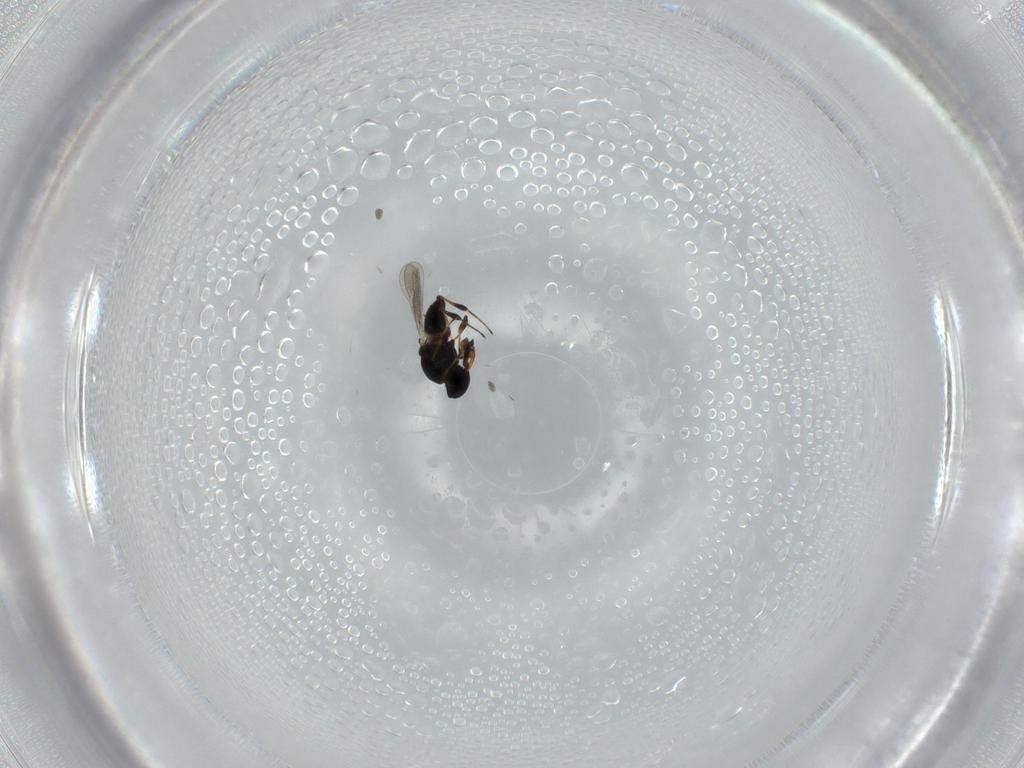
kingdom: Animalia
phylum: Arthropoda
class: Insecta
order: Hymenoptera
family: Platygastridae
